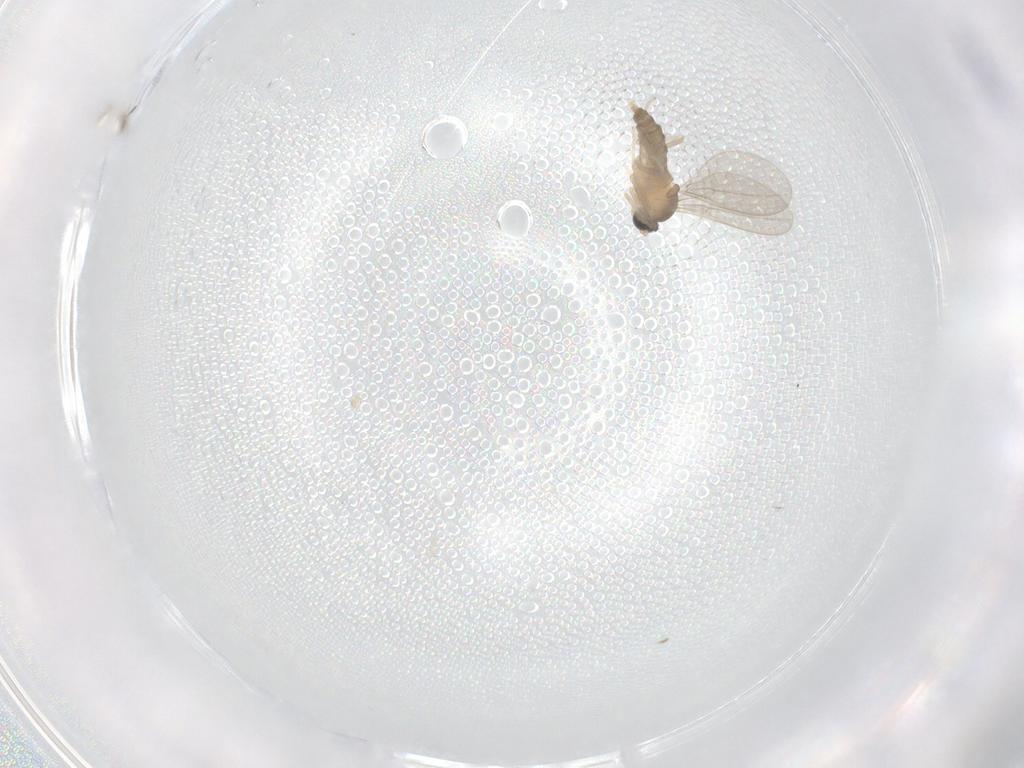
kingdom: Animalia
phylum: Arthropoda
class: Insecta
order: Diptera
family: Cecidomyiidae
